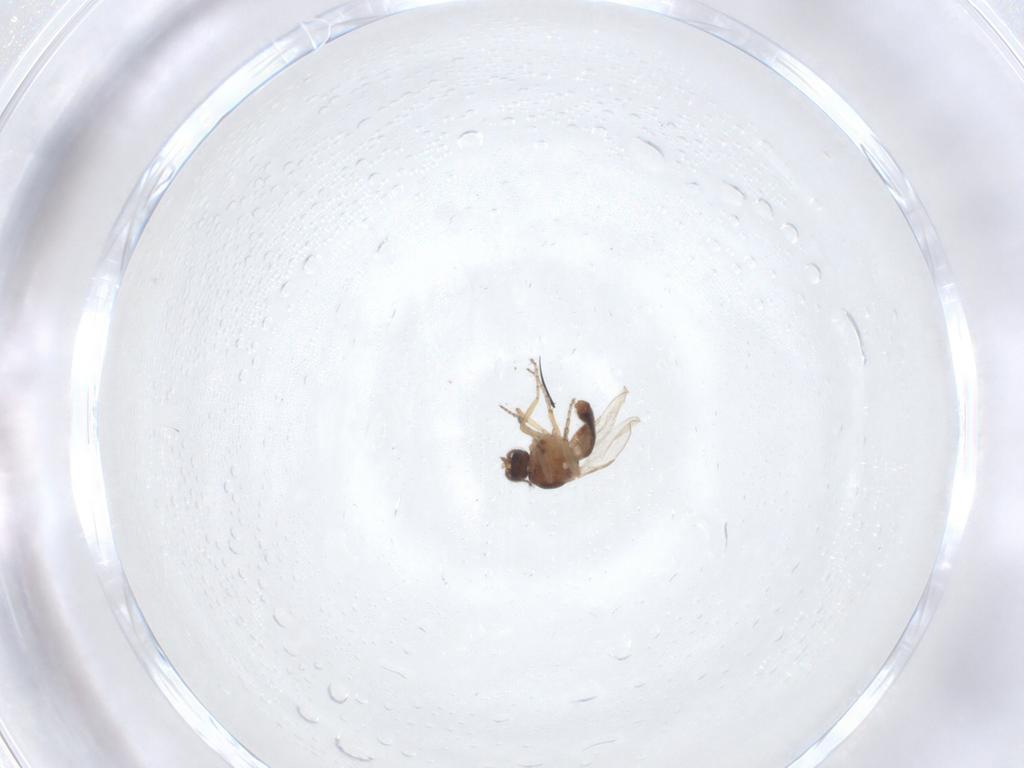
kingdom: Animalia
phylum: Arthropoda
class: Insecta
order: Diptera
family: Ceratopogonidae
